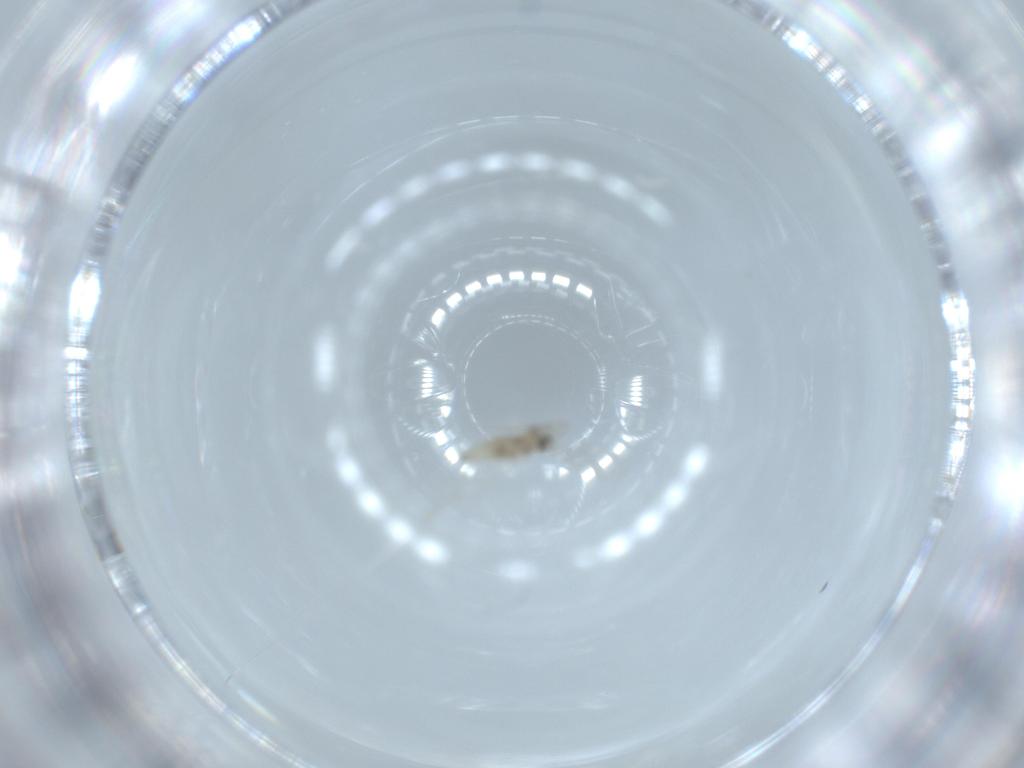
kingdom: Animalia
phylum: Arthropoda
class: Insecta
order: Diptera
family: Cecidomyiidae
